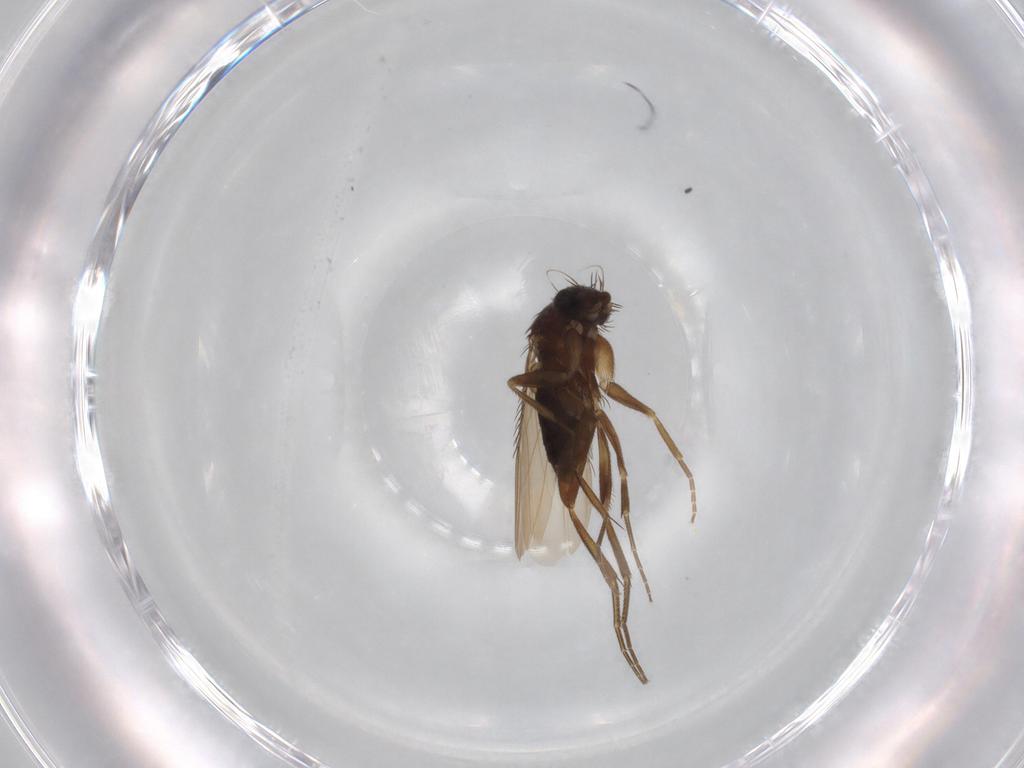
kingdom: Animalia
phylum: Arthropoda
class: Insecta
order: Diptera
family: Phoridae
